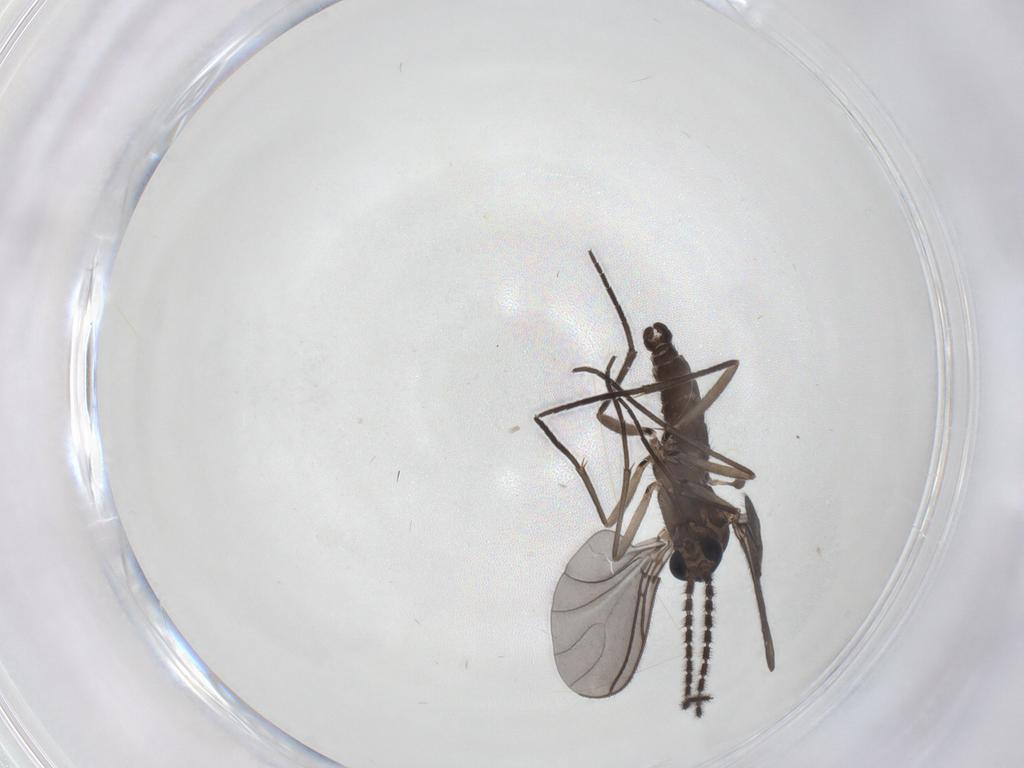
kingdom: Animalia
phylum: Arthropoda
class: Insecta
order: Diptera
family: Sciaridae
